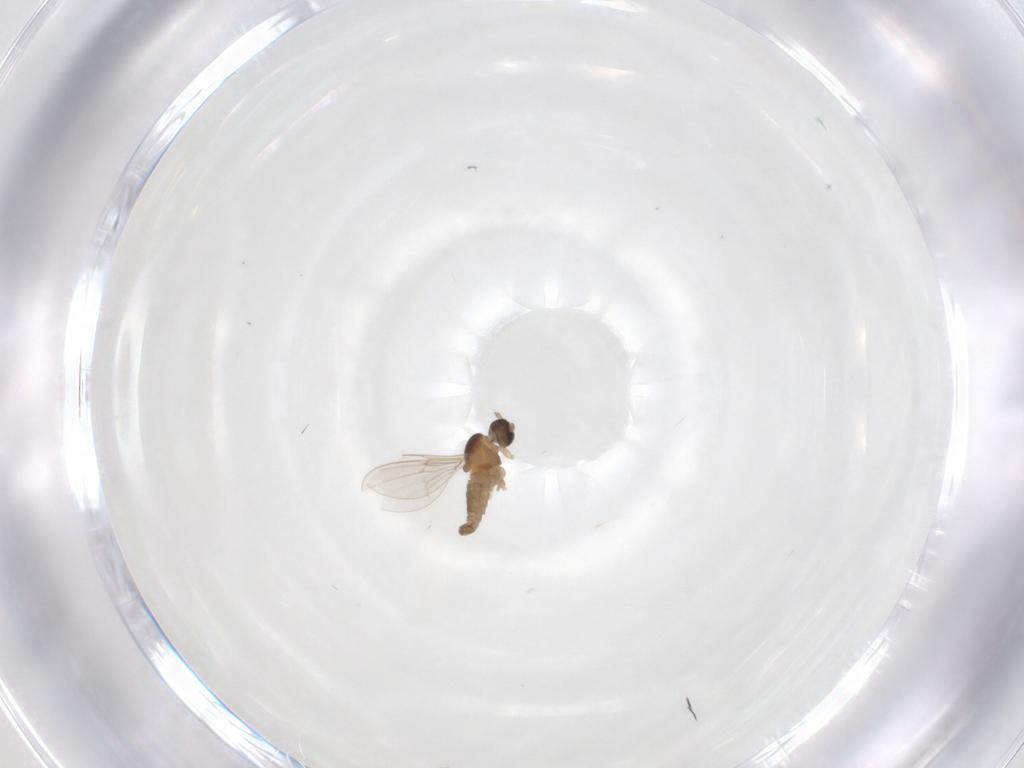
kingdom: Animalia
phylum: Arthropoda
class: Insecta
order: Diptera
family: Cecidomyiidae
